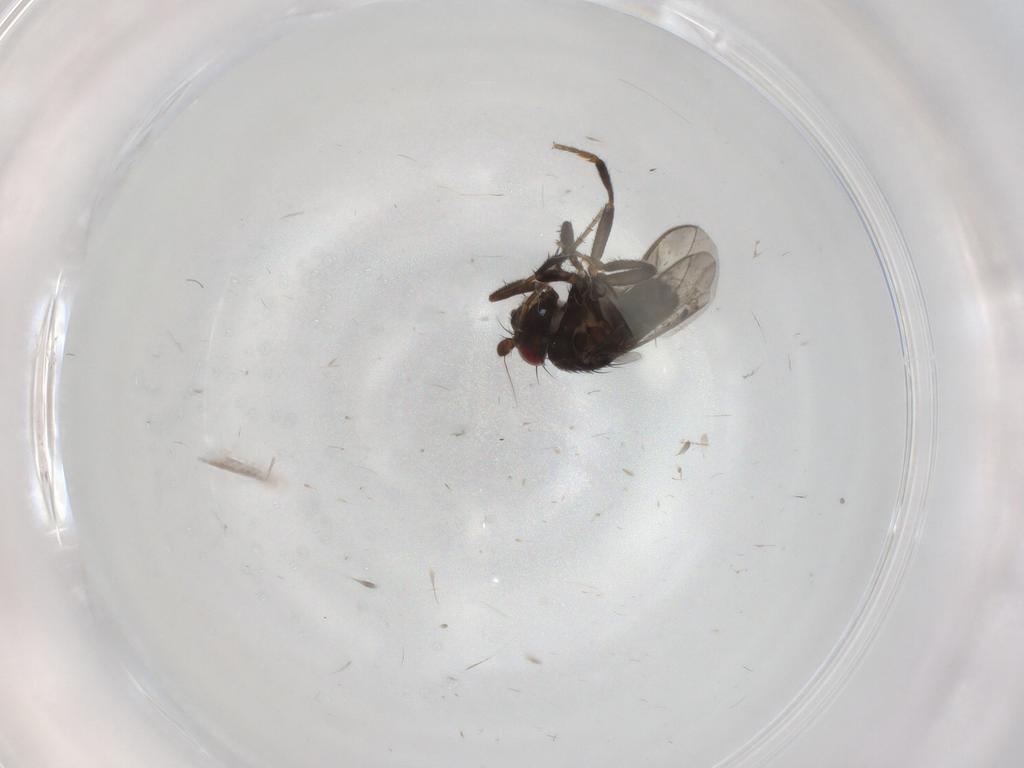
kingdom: Animalia
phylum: Arthropoda
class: Insecta
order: Diptera
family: Sphaeroceridae
